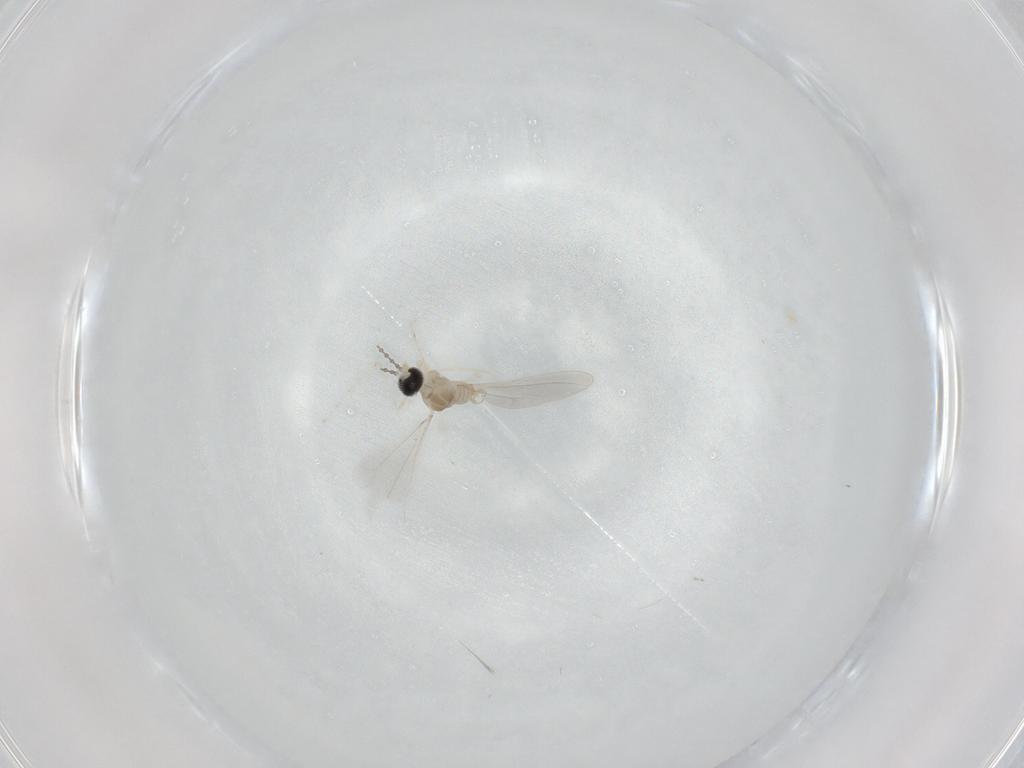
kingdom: Animalia
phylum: Arthropoda
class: Insecta
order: Diptera
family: Cecidomyiidae
